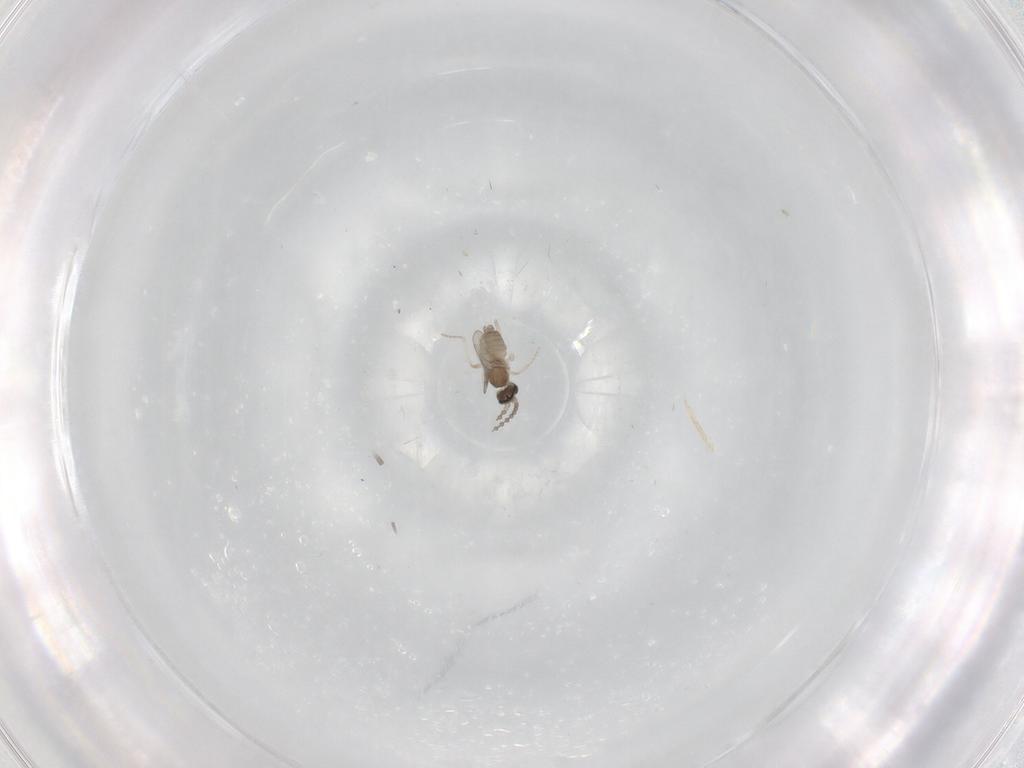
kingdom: Animalia
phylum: Arthropoda
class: Insecta
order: Diptera
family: Cecidomyiidae
